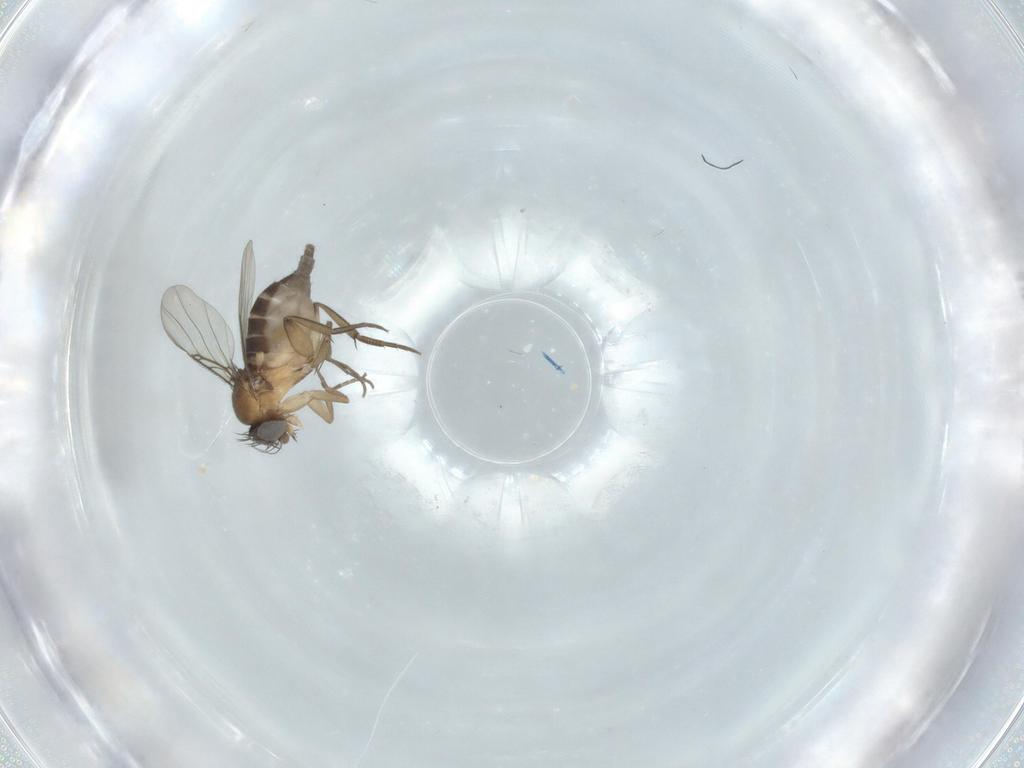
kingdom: Animalia
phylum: Arthropoda
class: Insecta
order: Diptera
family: Phoridae
